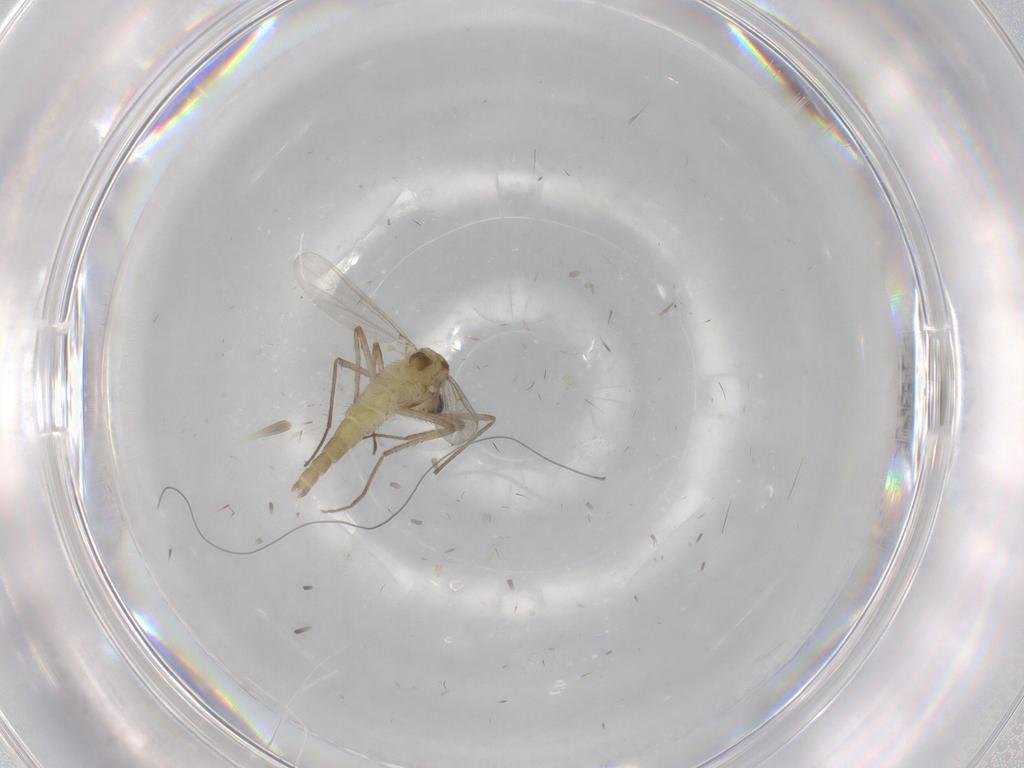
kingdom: Animalia
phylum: Arthropoda
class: Insecta
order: Diptera
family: Chironomidae
